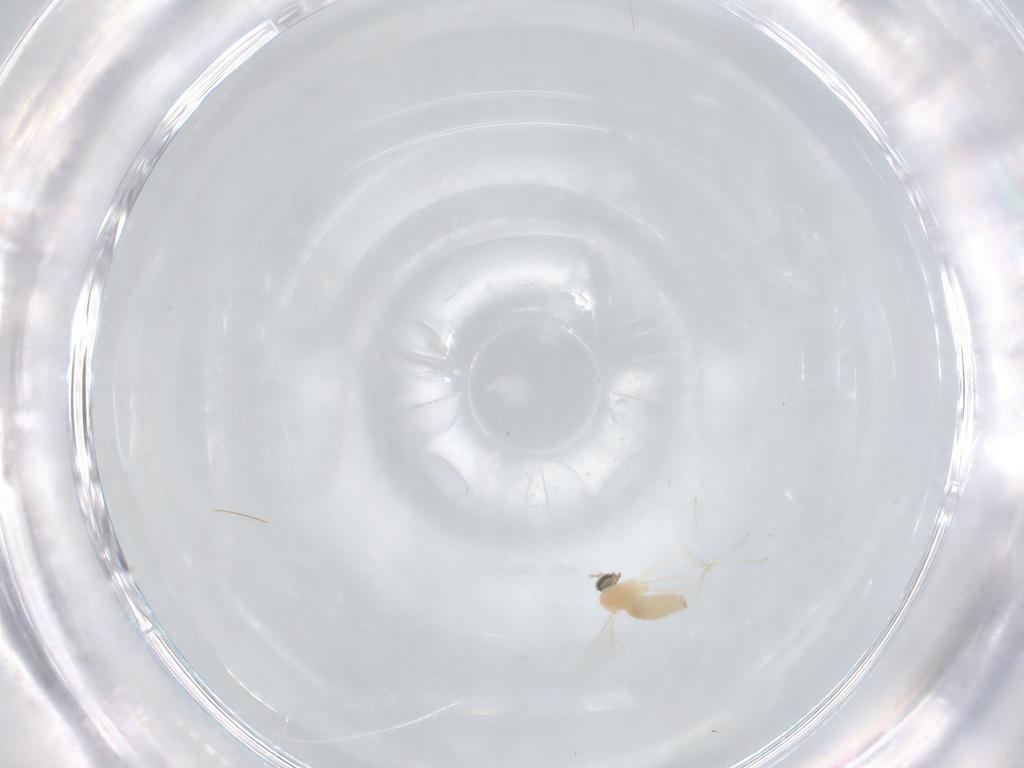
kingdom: Animalia
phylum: Arthropoda
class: Insecta
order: Diptera
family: Cecidomyiidae
